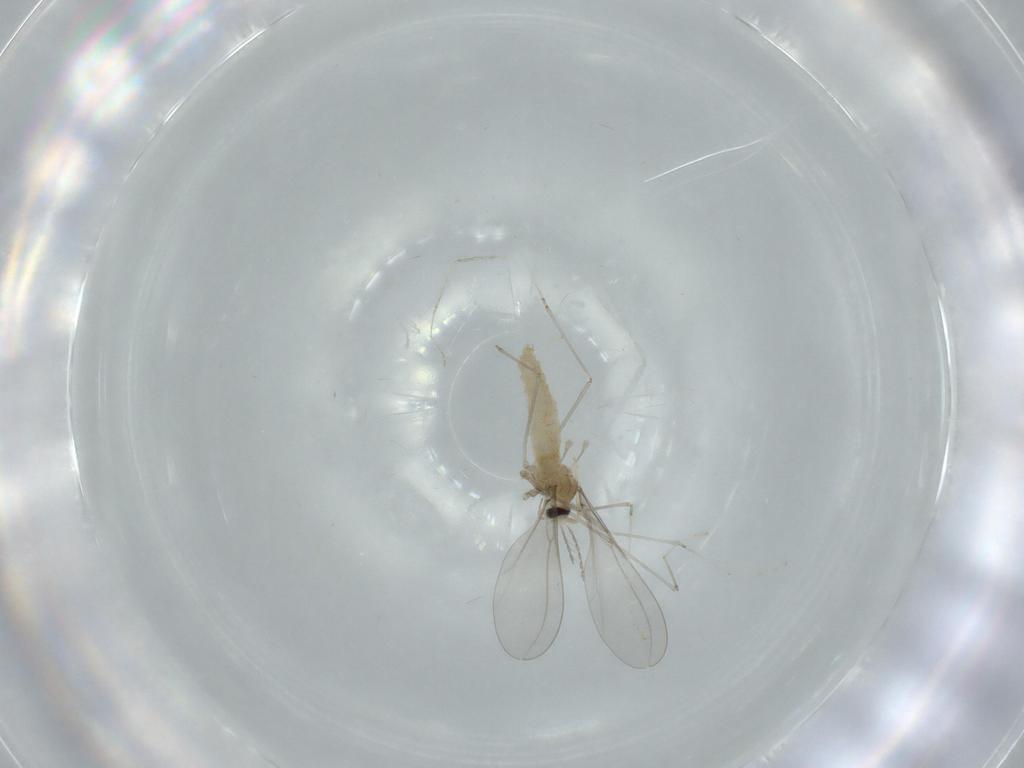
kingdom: Animalia
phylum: Arthropoda
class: Insecta
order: Diptera
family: Cecidomyiidae
